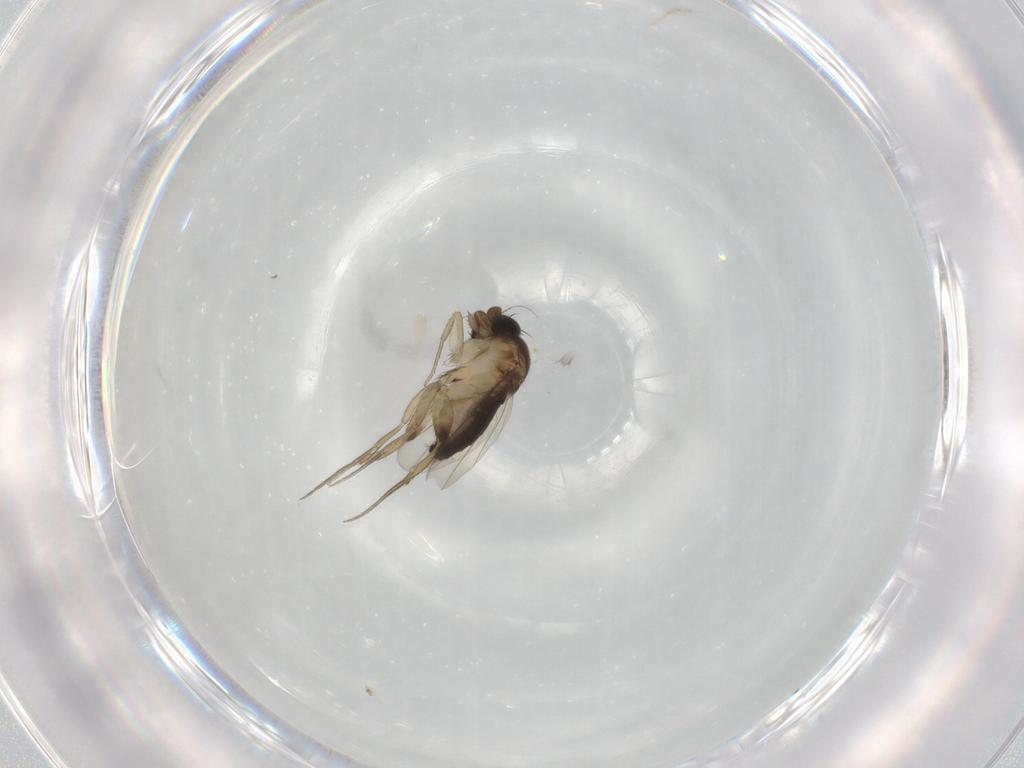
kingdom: Animalia
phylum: Arthropoda
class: Insecta
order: Diptera
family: Phoridae
